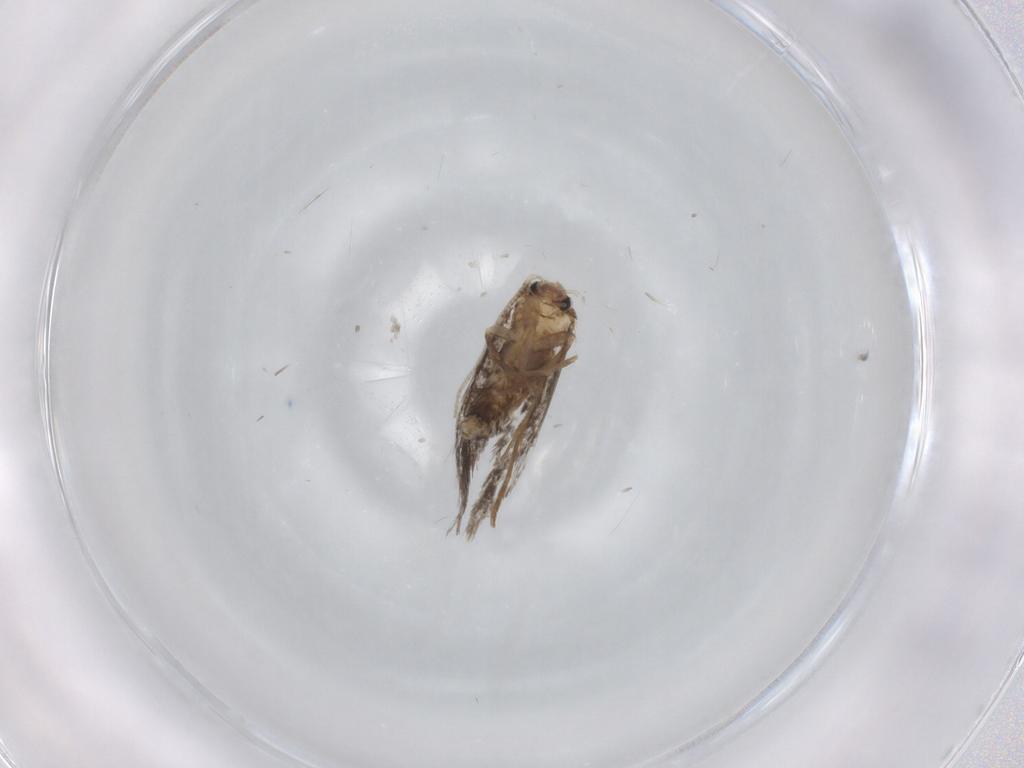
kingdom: Animalia
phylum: Arthropoda
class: Insecta
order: Lepidoptera
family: Tineidae
